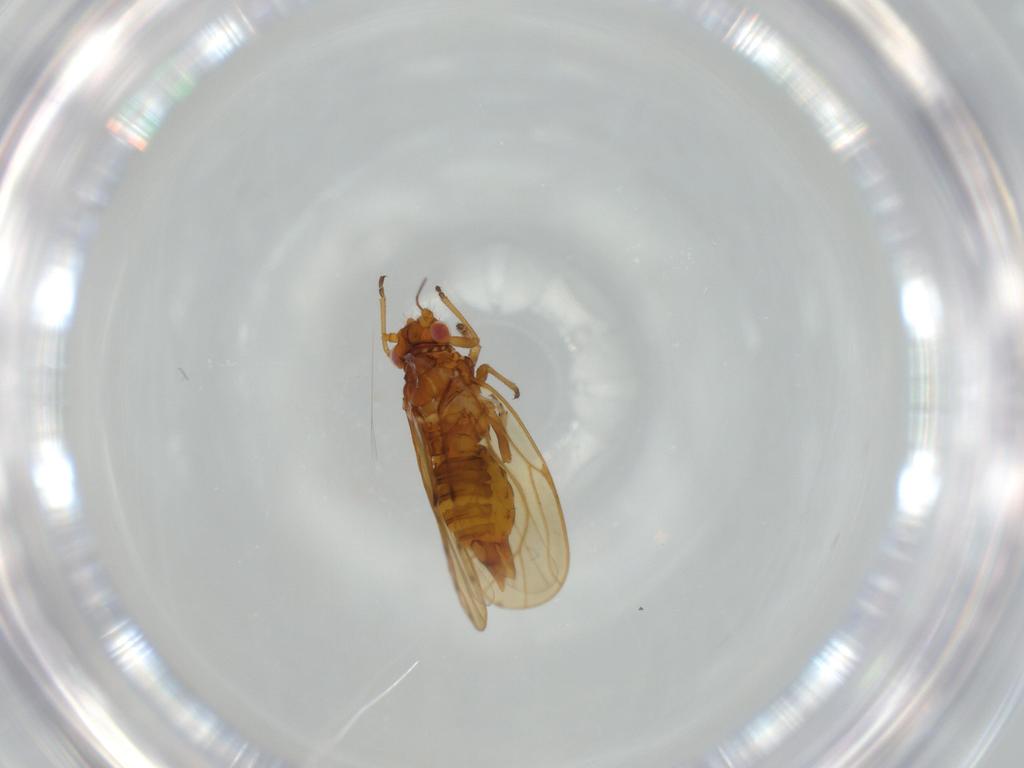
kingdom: Animalia
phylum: Arthropoda
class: Insecta
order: Hemiptera
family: Psylloidea_incertae_sedis
